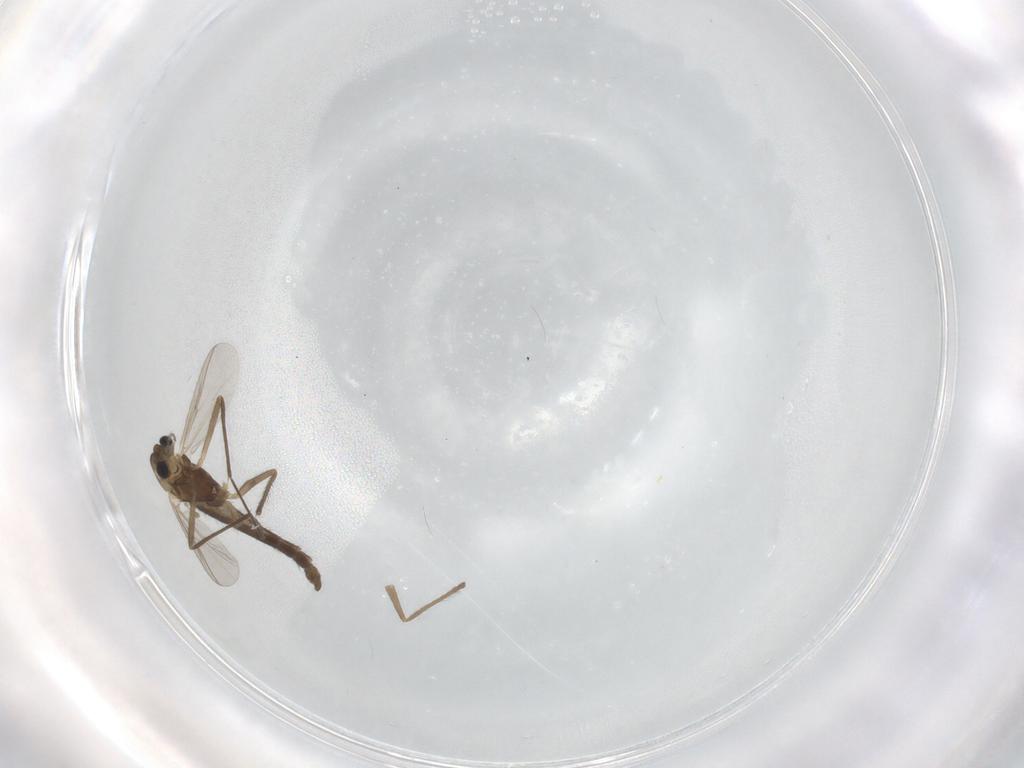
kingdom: Animalia
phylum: Arthropoda
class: Insecta
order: Diptera
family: Chironomidae
